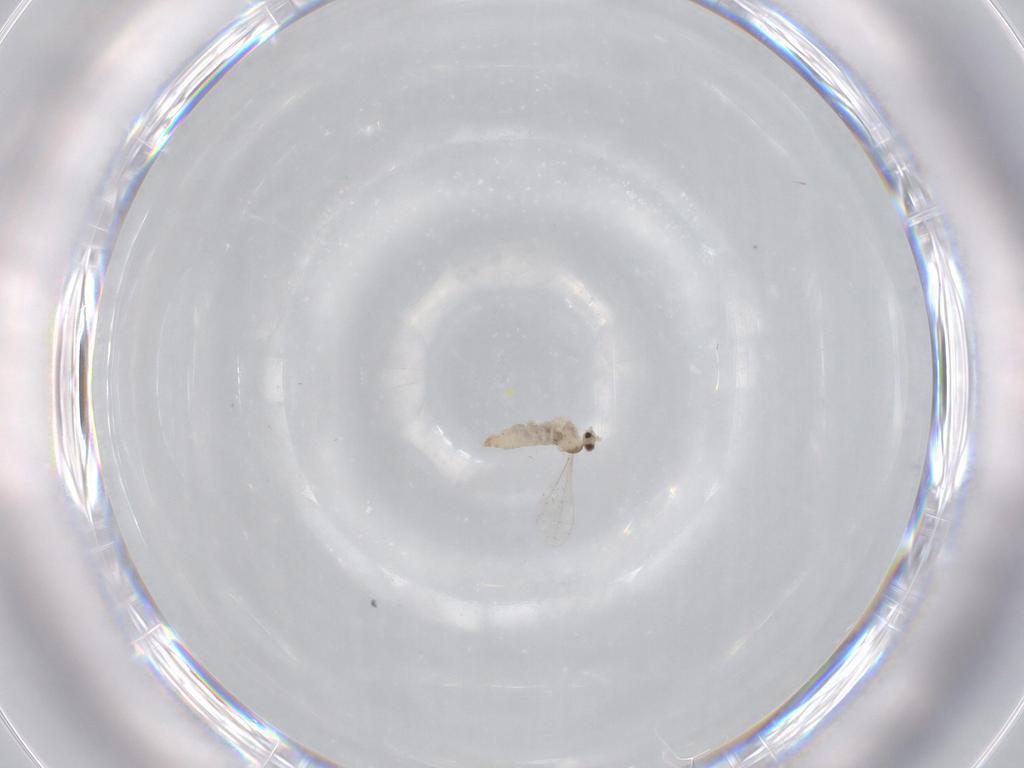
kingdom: Animalia
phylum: Arthropoda
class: Insecta
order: Diptera
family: Cecidomyiidae
